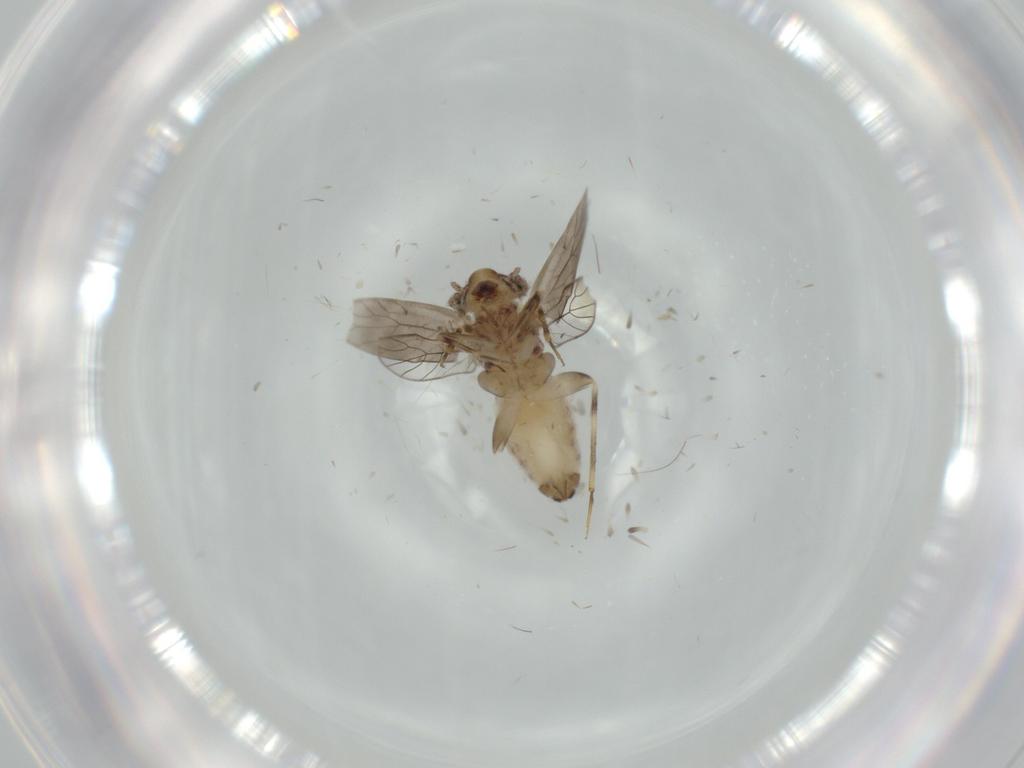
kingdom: Animalia
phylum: Arthropoda
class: Insecta
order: Psocodea
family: Lepidopsocidae
